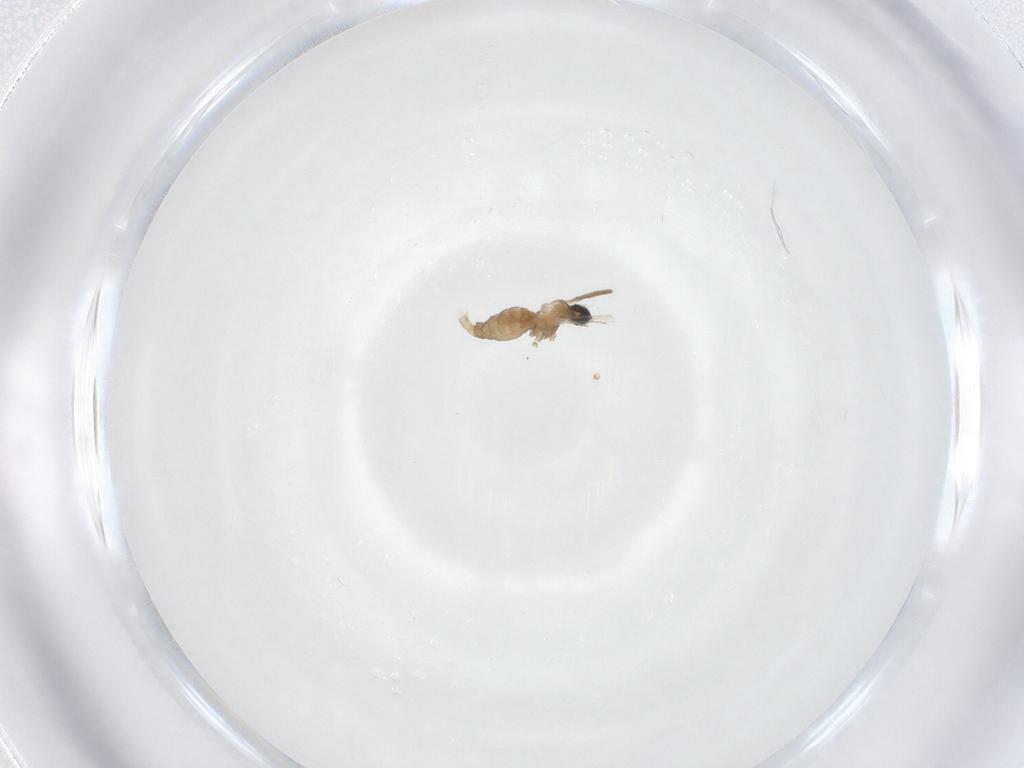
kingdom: Animalia
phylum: Arthropoda
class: Insecta
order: Diptera
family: Cecidomyiidae
